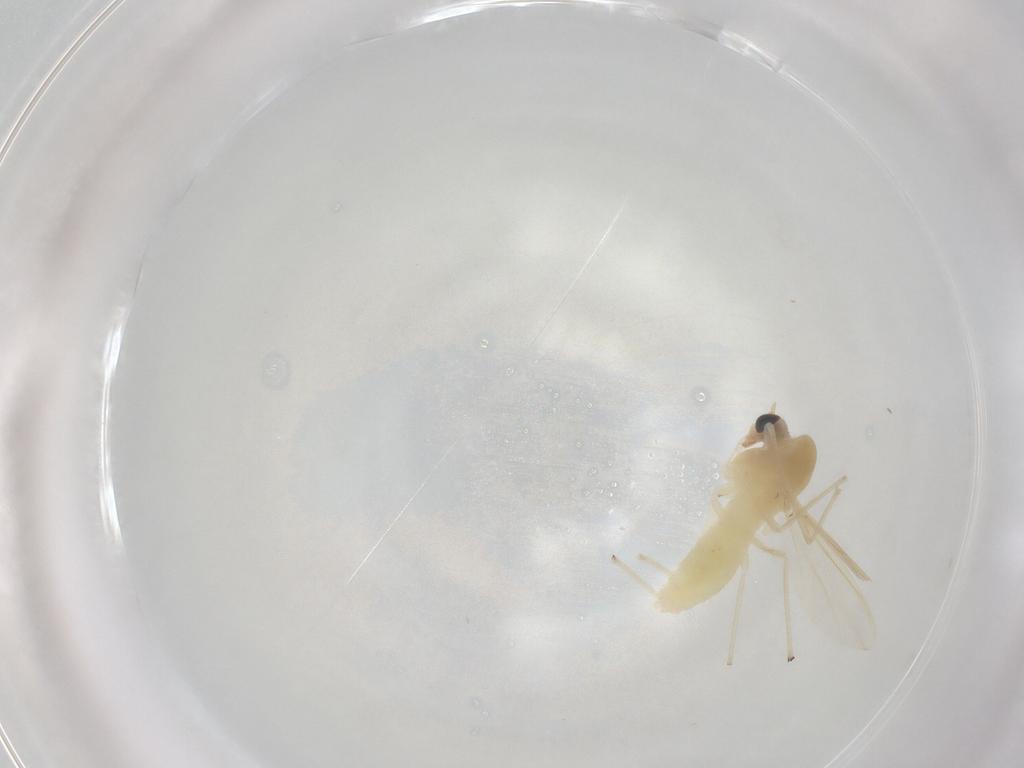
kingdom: Animalia
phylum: Arthropoda
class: Insecta
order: Diptera
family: Chironomidae
